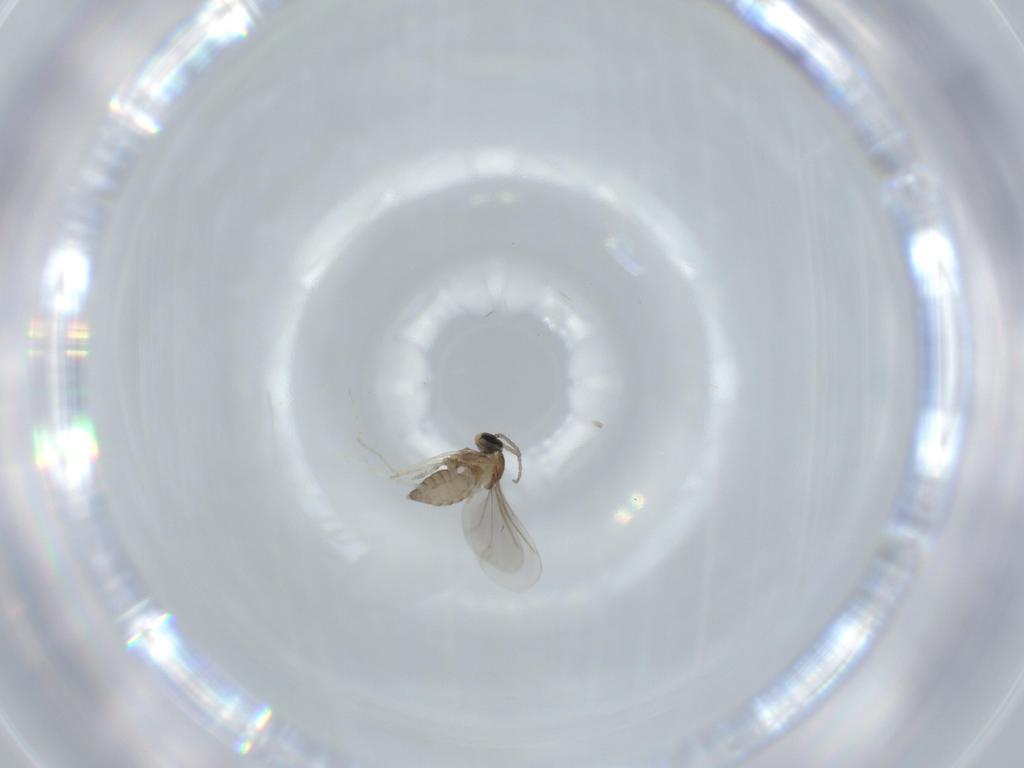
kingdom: Animalia
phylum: Arthropoda
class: Insecta
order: Diptera
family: Cecidomyiidae
